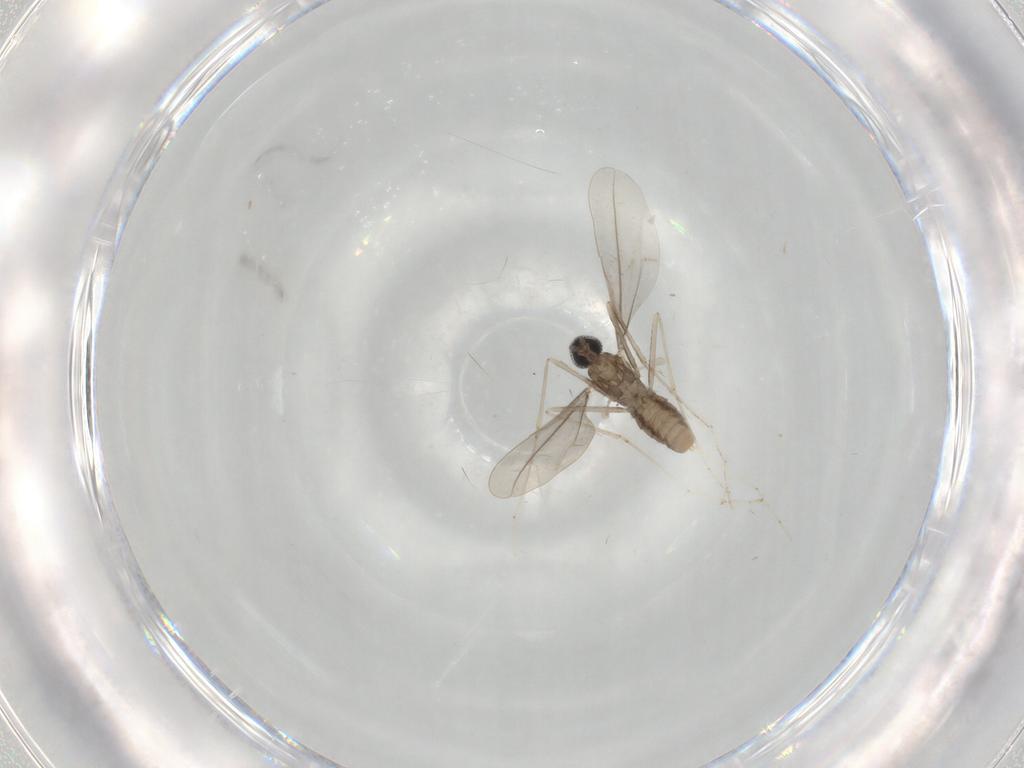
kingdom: Animalia
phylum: Arthropoda
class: Insecta
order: Diptera
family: Cecidomyiidae
